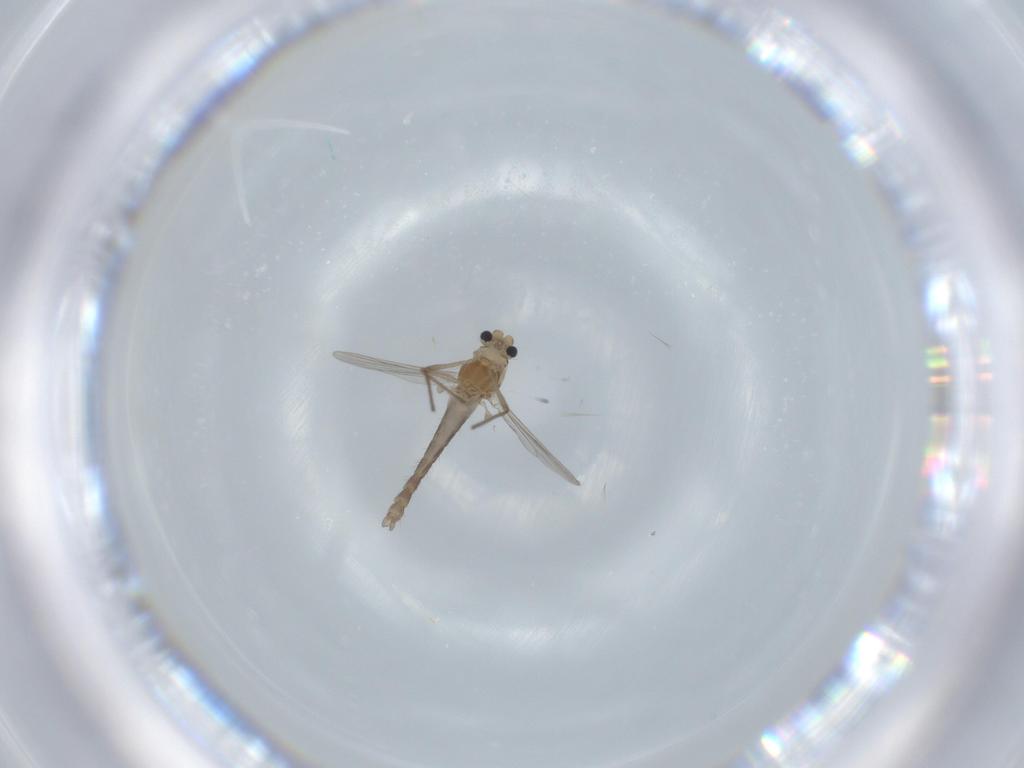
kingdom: Animalia
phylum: Arthropoda
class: Insecta
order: Diptera
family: Chironomidae
